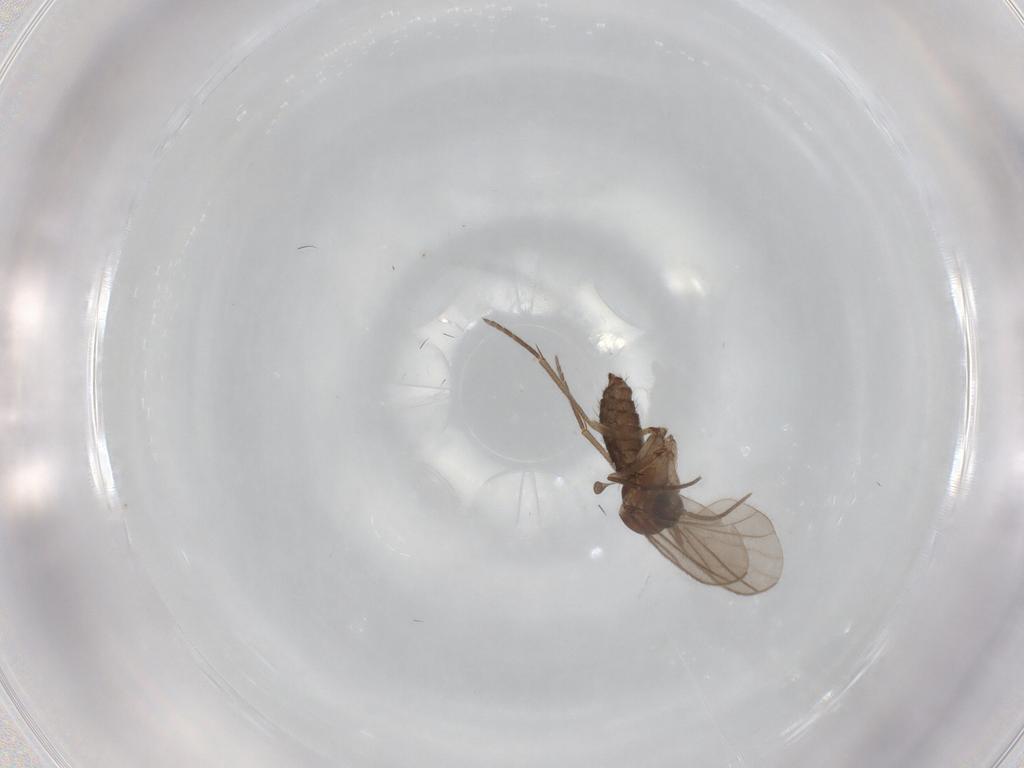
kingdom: Animalia
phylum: Arthropoda
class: Insecta
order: Diptera
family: Sciaridae
